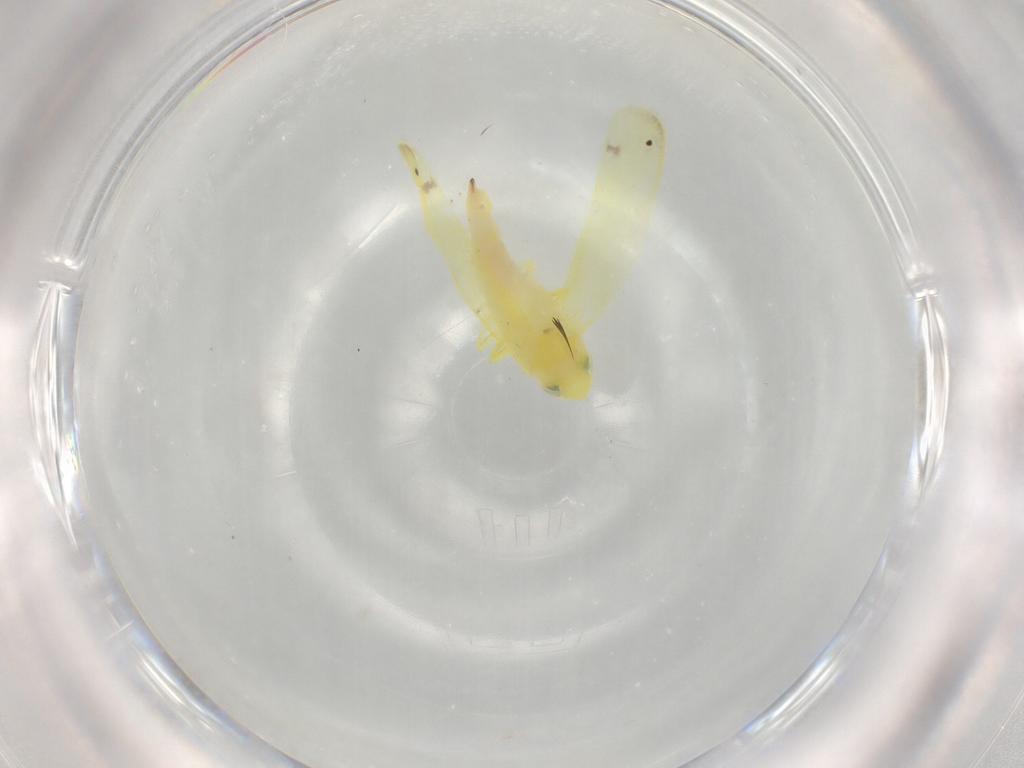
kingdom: Animalia
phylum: Arthropoda
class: Insecta
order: Hemiptera
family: Cicadellidae
